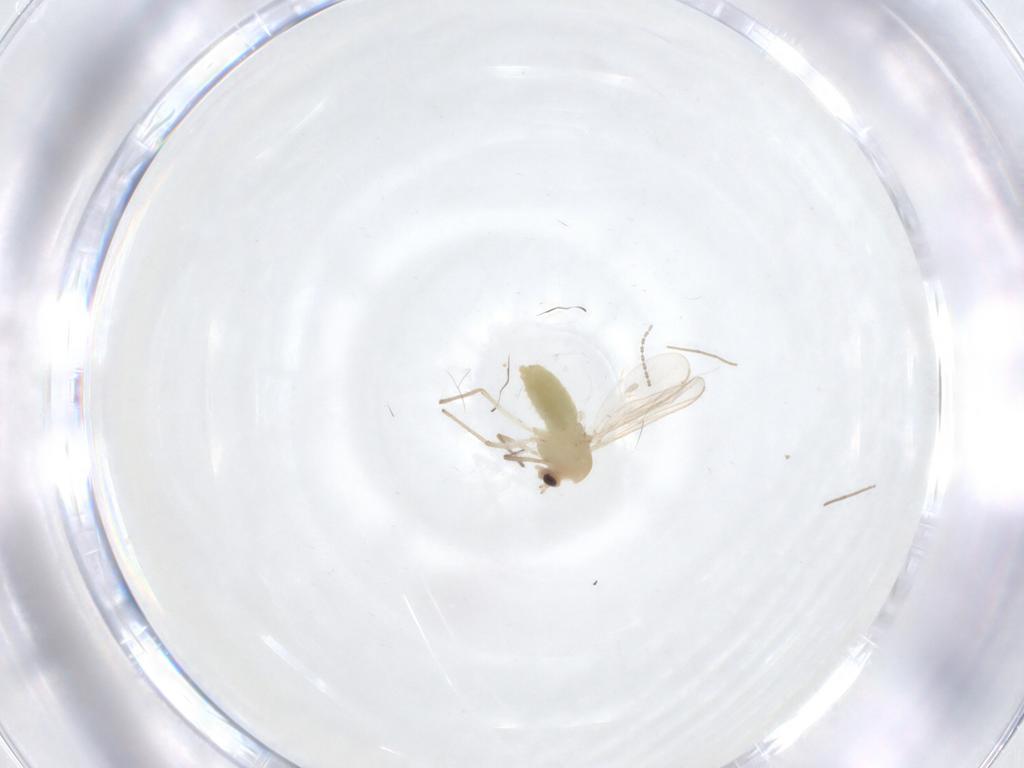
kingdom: Animalia
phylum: Arthropoda
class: Insecta
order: Diptera
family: Chironomidae
